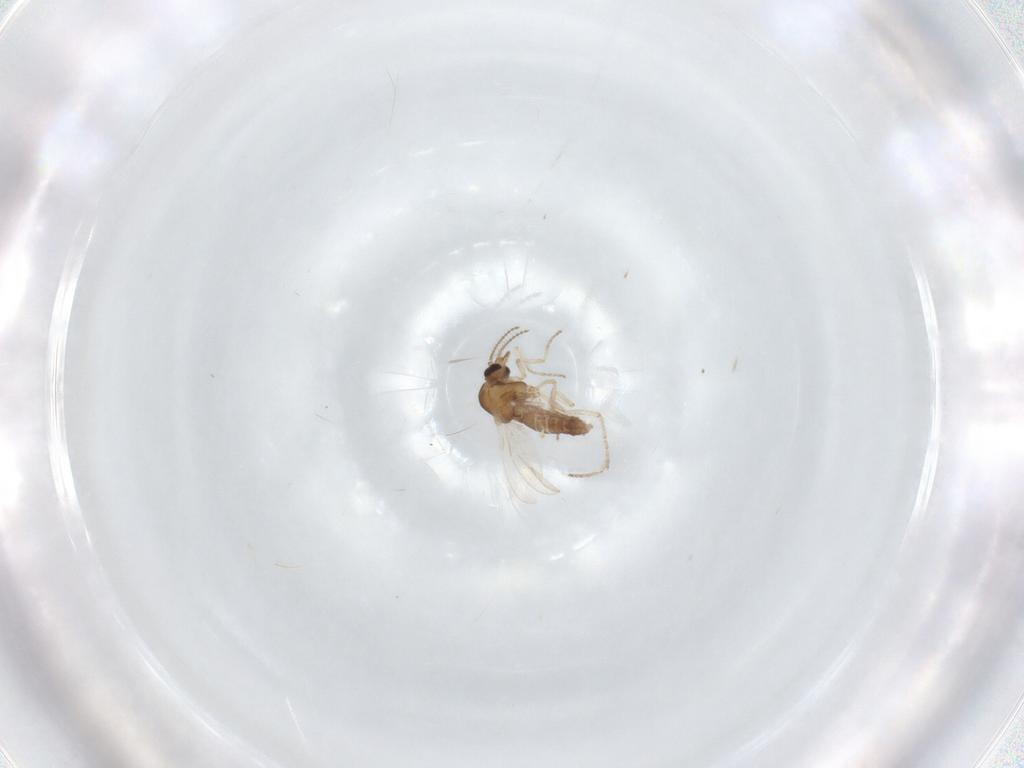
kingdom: Animalia
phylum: Arthropoda
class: Insecta
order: Diptera
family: Ceratopogonidae
